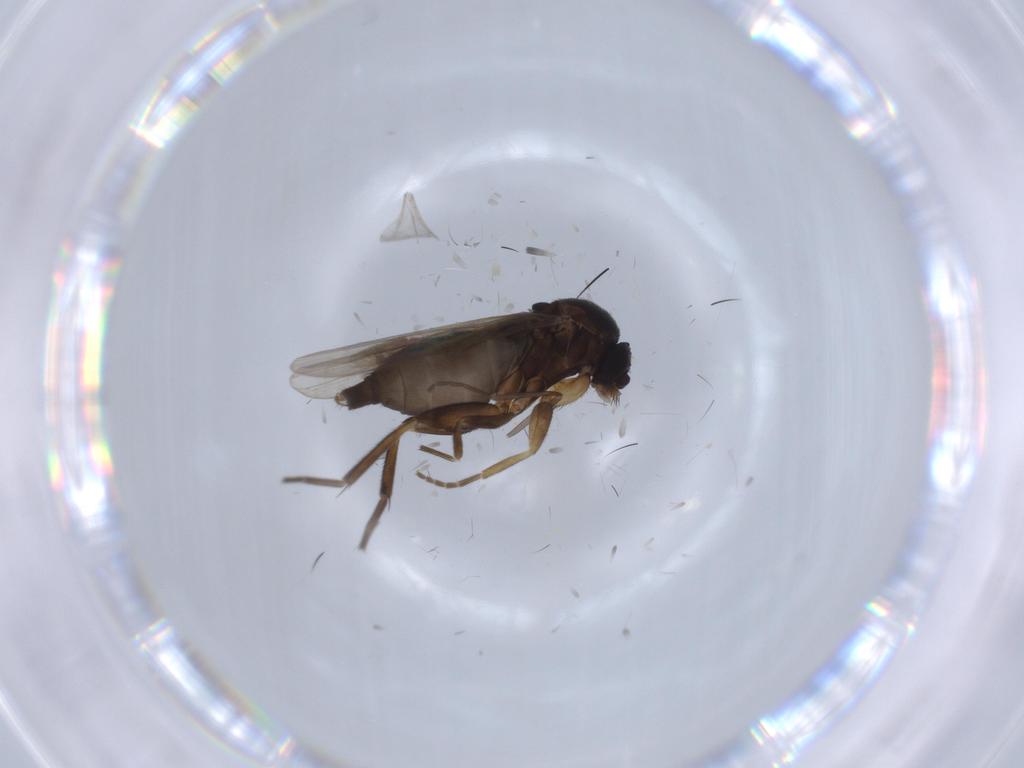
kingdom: Animalia
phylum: Arthropoda
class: Insecta
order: Diptera
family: Phoridae
